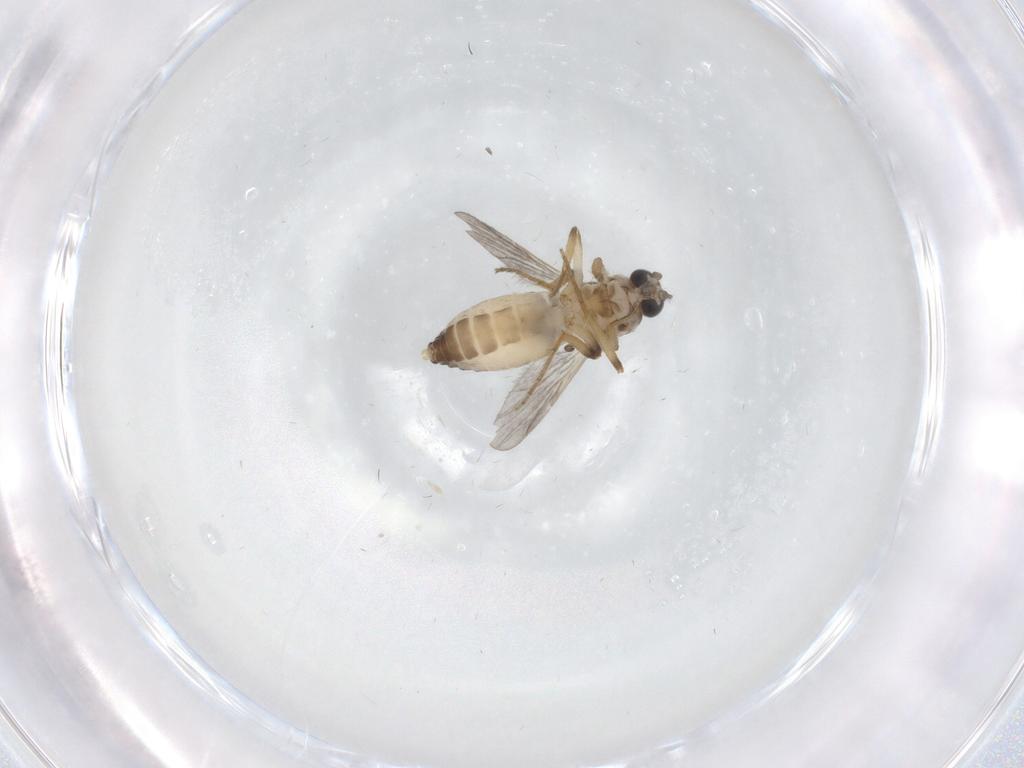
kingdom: Animalia
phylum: Arthropoda
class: Insecta
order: Diptera
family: Ceratopogonidae
